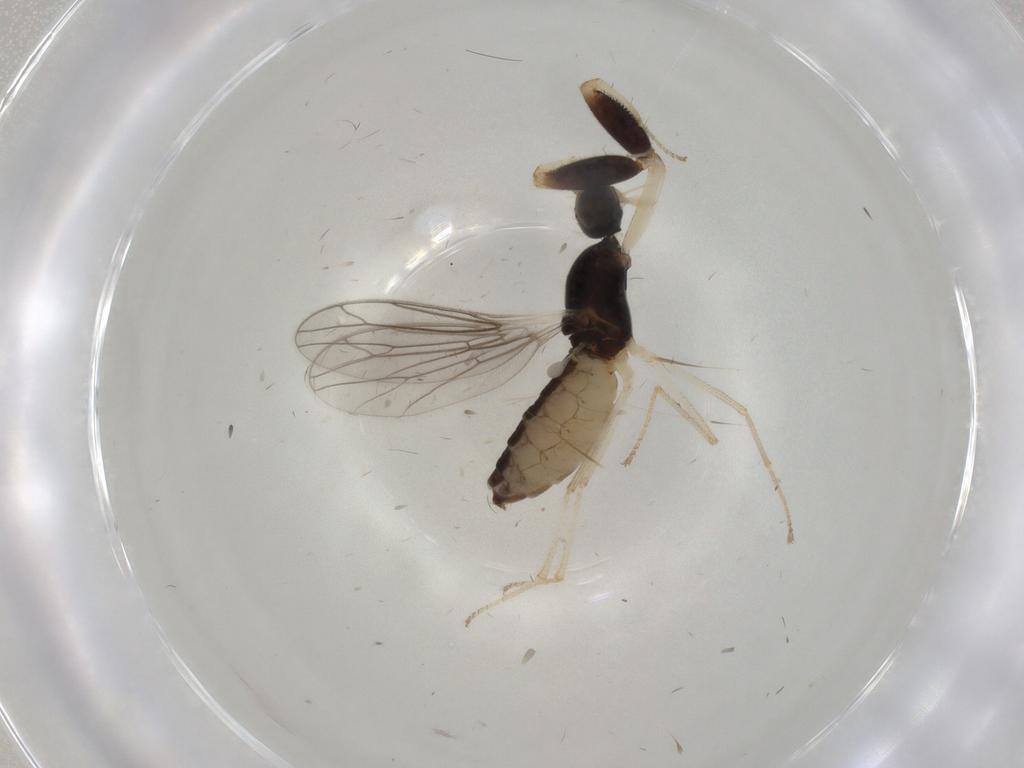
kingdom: Animalia
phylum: Arthropoda
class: Insecta
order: Diptera
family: Empididae
